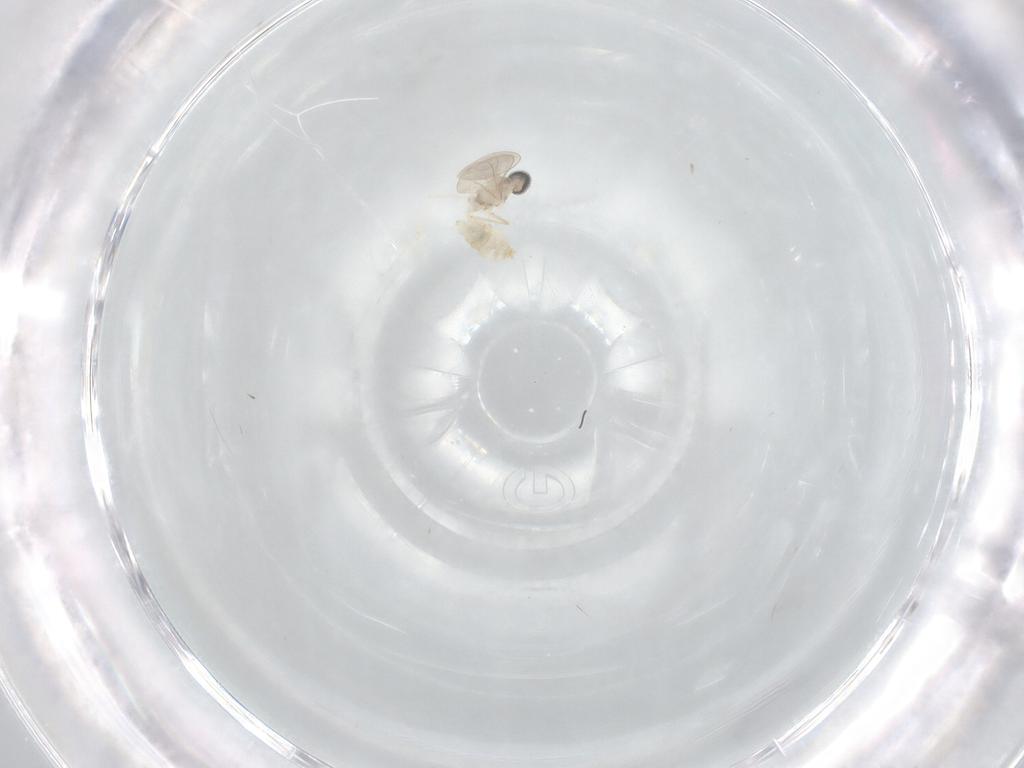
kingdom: Animalia
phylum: Arthropoda
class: Insecta
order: Diptera
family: Cecidomyiidae
